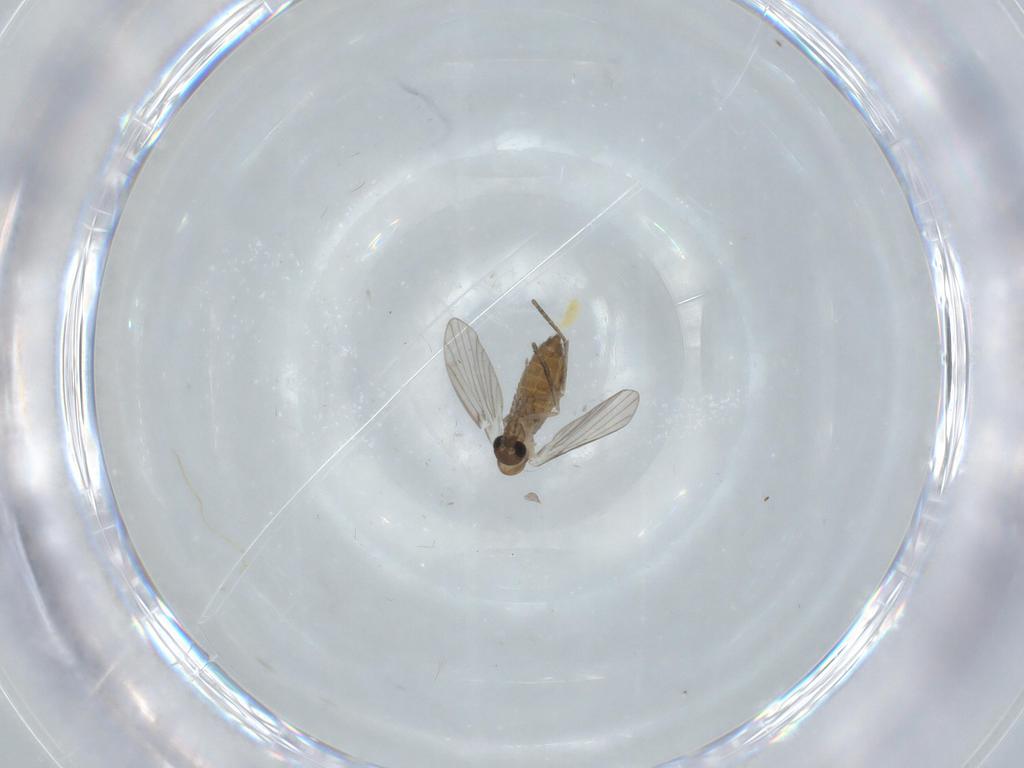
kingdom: Animalia
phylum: Arthropoda
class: Insecta
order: Diptera
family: Sciaridae
